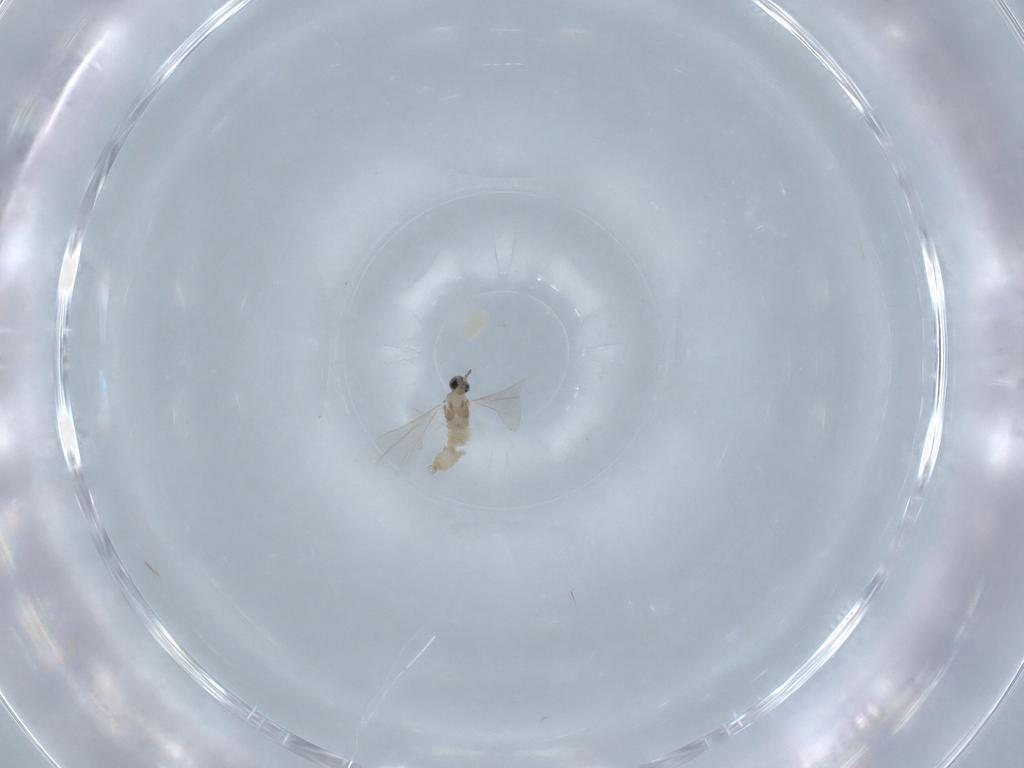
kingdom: Animalia
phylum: Arthropoda
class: Insecta
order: Diptera
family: Cecidomyiidae
